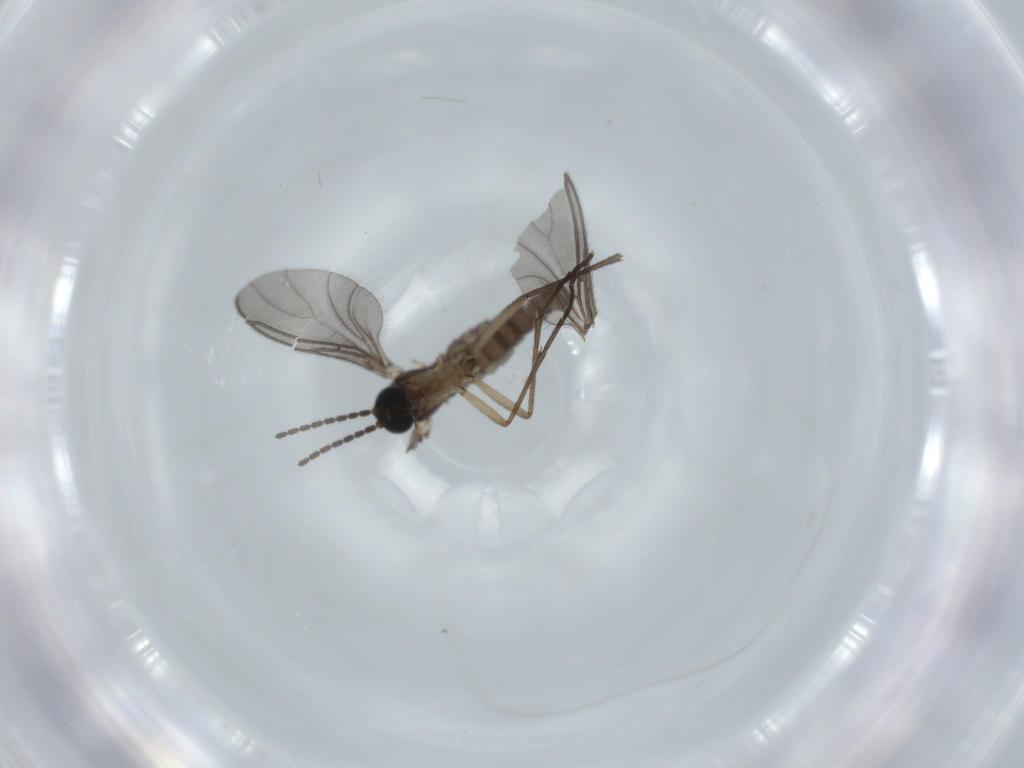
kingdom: Animalia
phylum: Arthropoda
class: Insecta
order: Diptera
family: Sciaridae
